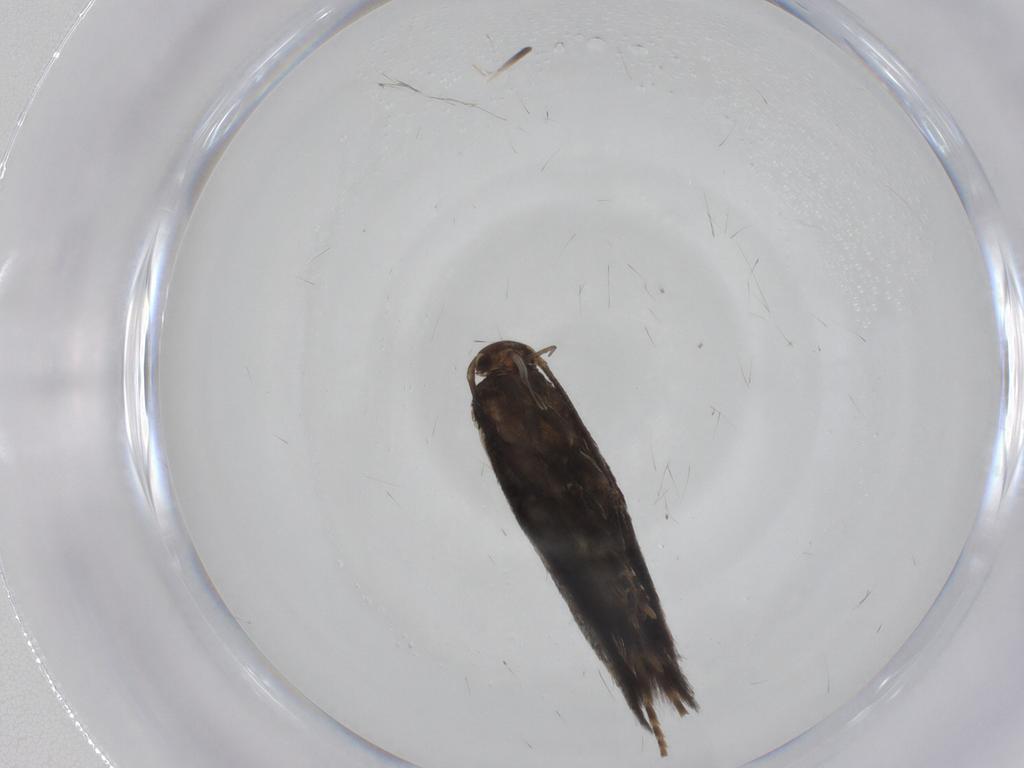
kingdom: Animalia
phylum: Arthropoda
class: Insecta
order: Lepidoptera
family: Elachistidae
